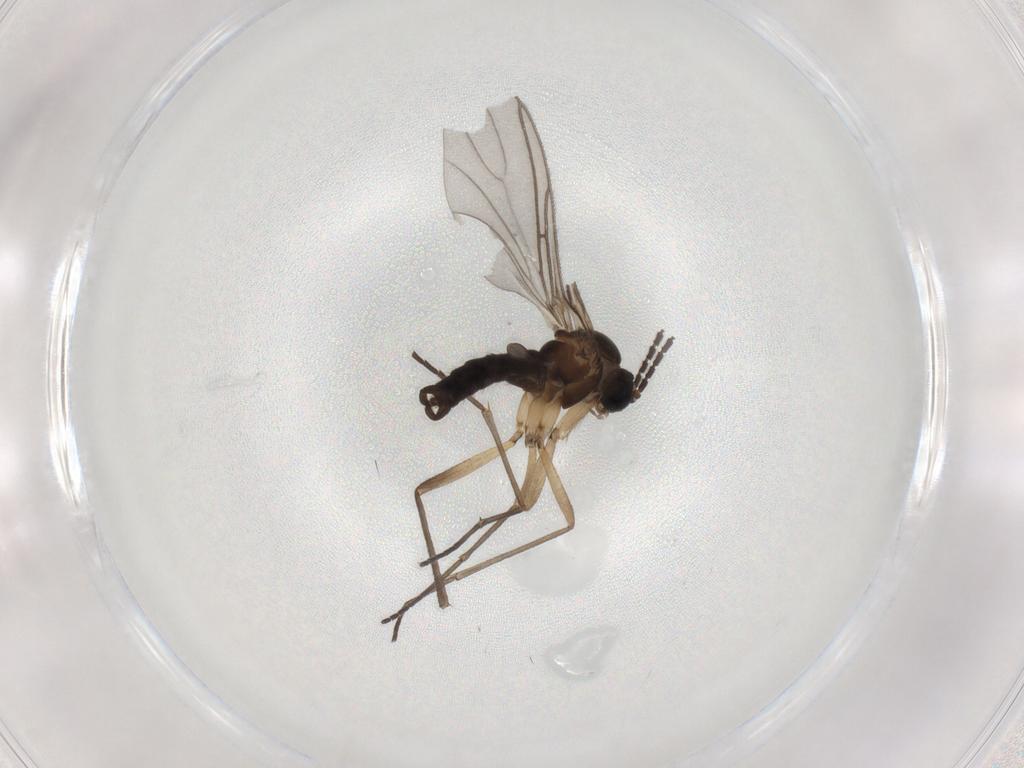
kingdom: Animalia
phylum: Arthropoda
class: Insecta
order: Diptera
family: Sciaridae
